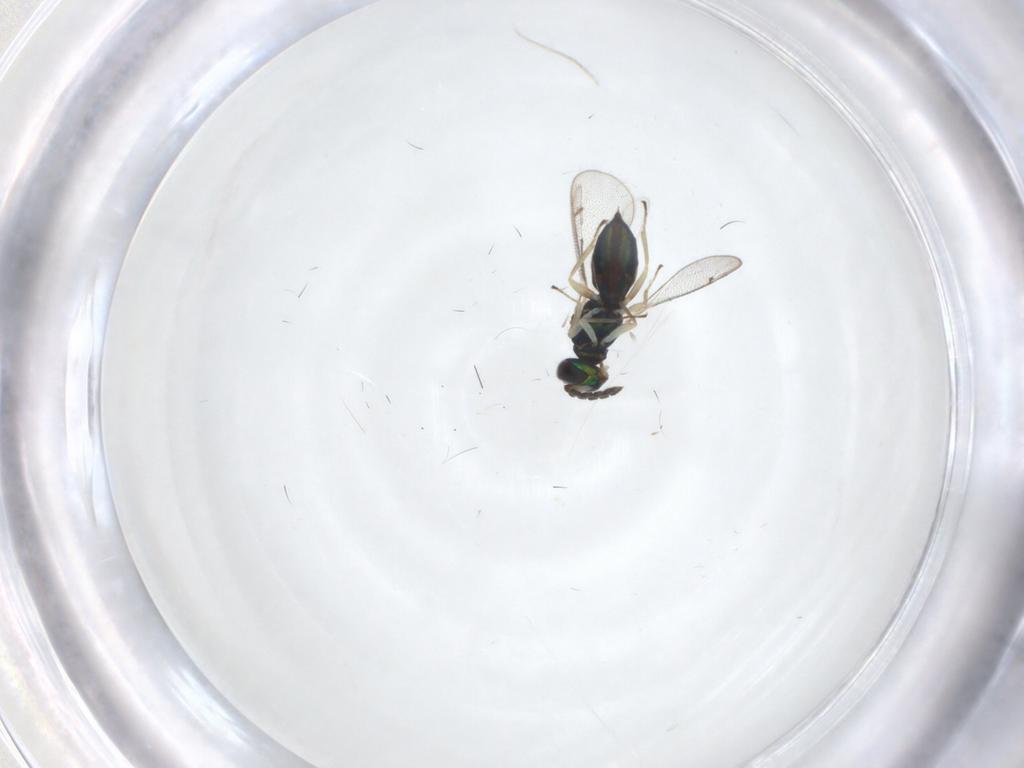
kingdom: Animalia
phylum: Arthropoda
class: Insecta
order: Hymenoptera
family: Eulophidae
